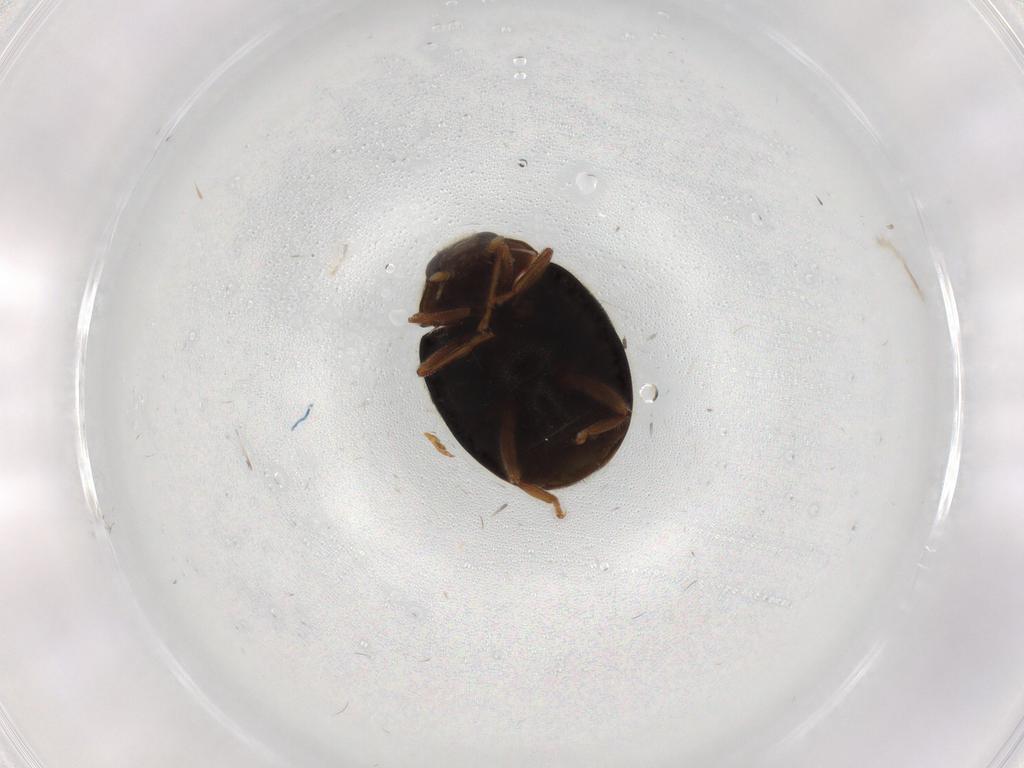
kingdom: Animalia
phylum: Arthropoda
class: Insecta
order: Coleoptera
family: Coccinellidae
